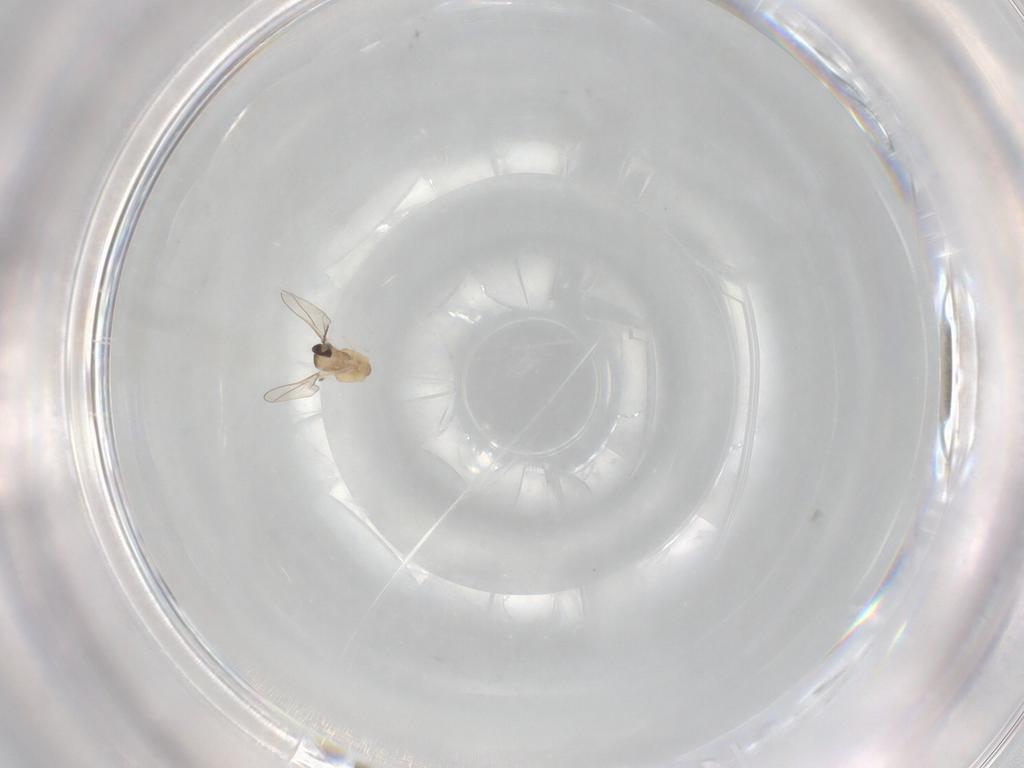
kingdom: Animalia
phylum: Arthropoda
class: Insecta
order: Diptera
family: Cecidomyiidae
